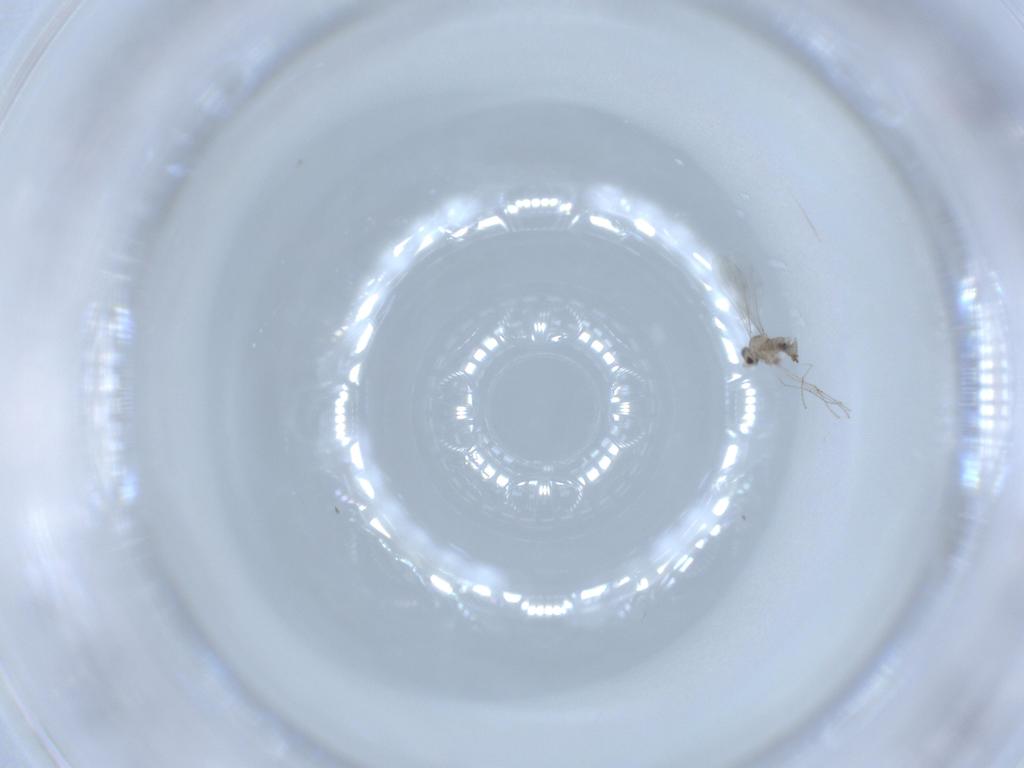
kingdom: Animalia
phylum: Arthropoda
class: Insecta
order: Diptera
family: Cecidomyiidae
